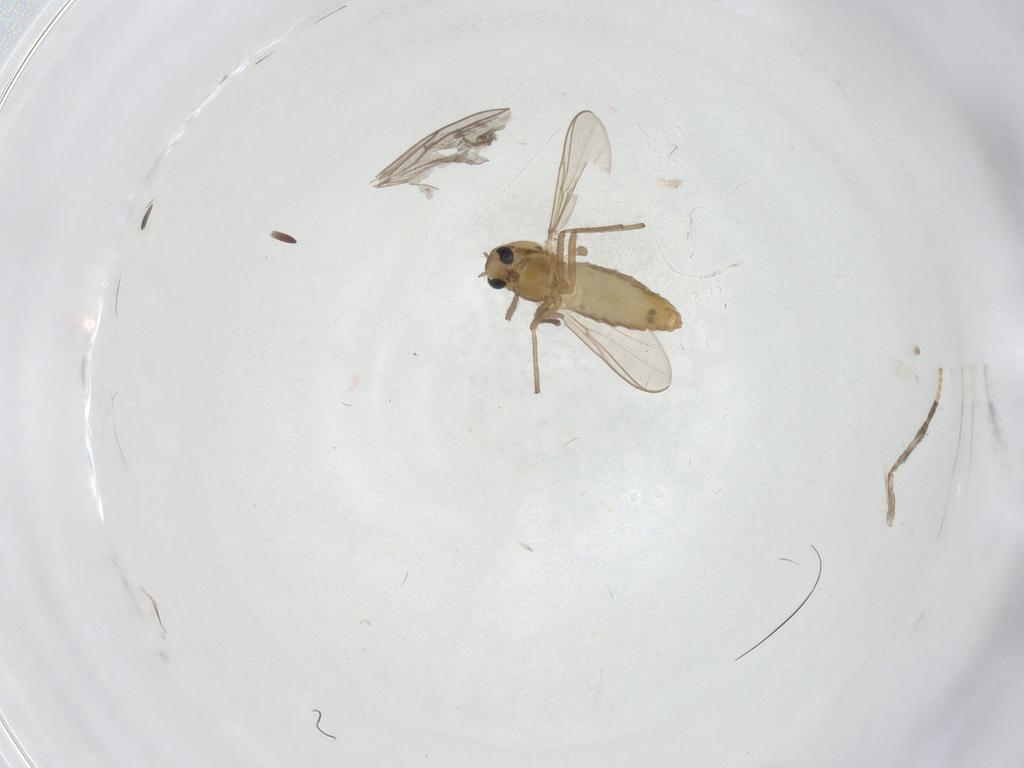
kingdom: Animalia
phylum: Arthropoda
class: Insecta
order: Diptera
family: Chironomidae
